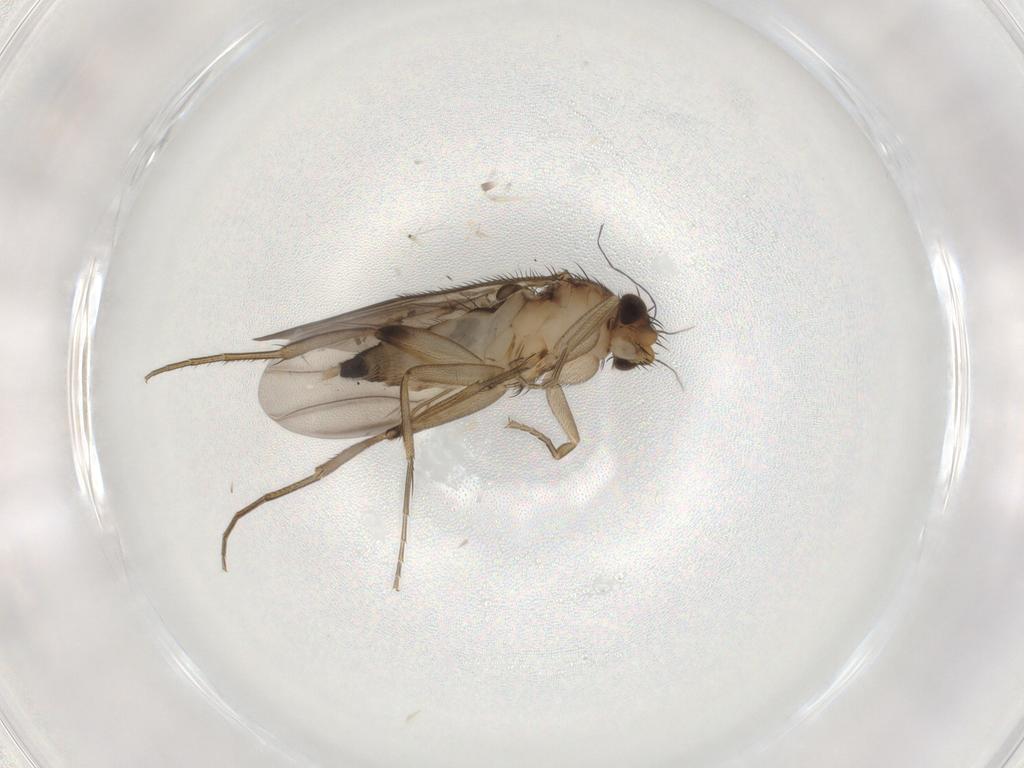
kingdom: Animalia
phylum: Arthropoda
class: Insecta
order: Diptera
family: Phoridae
